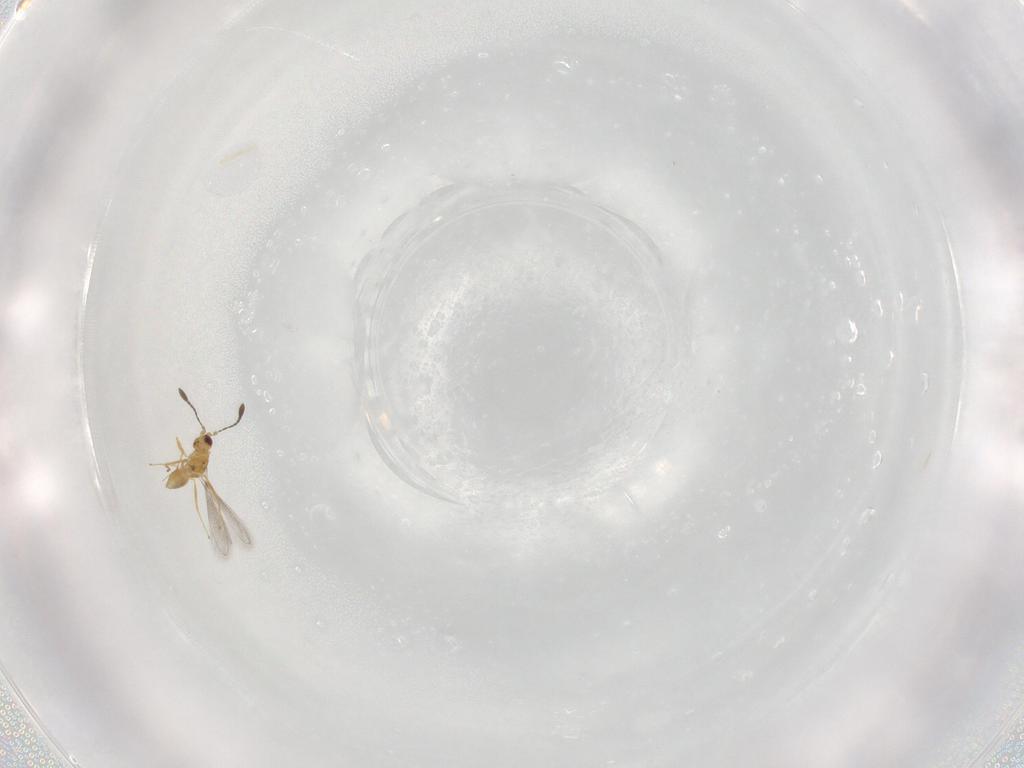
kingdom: Animalia
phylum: Arthropoda
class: Insecta
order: Hymenoptera
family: Mymaridae
